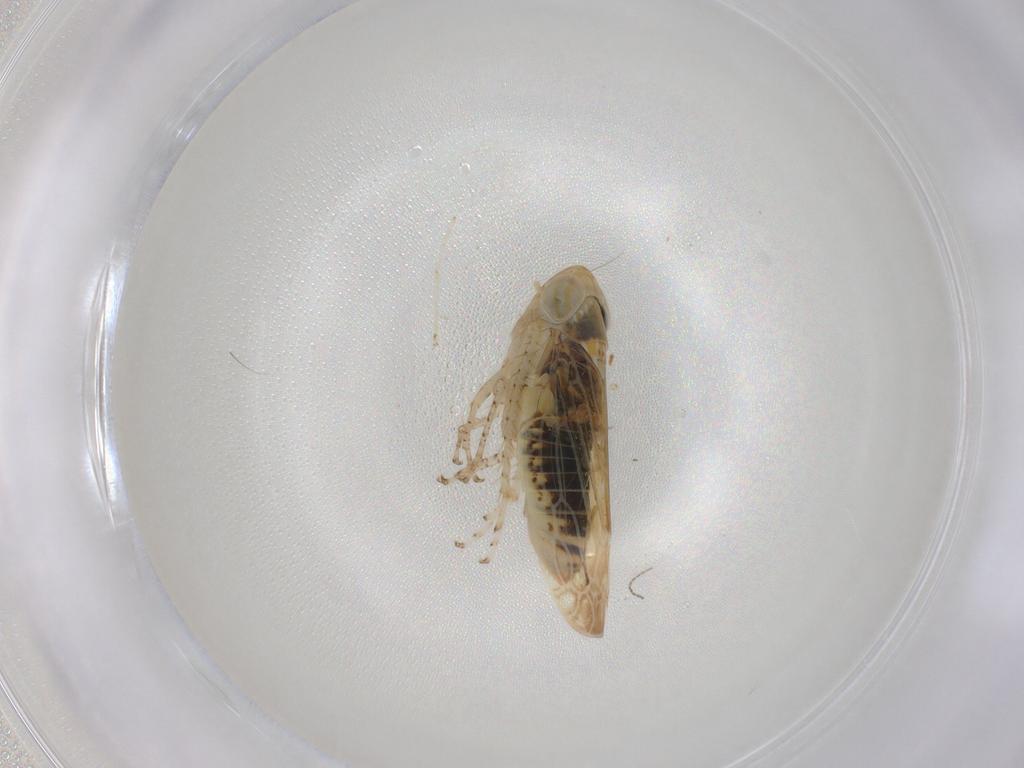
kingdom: Animalia
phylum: Arthropoda
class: Insecta
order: Hemiptera
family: Cicadellidae
